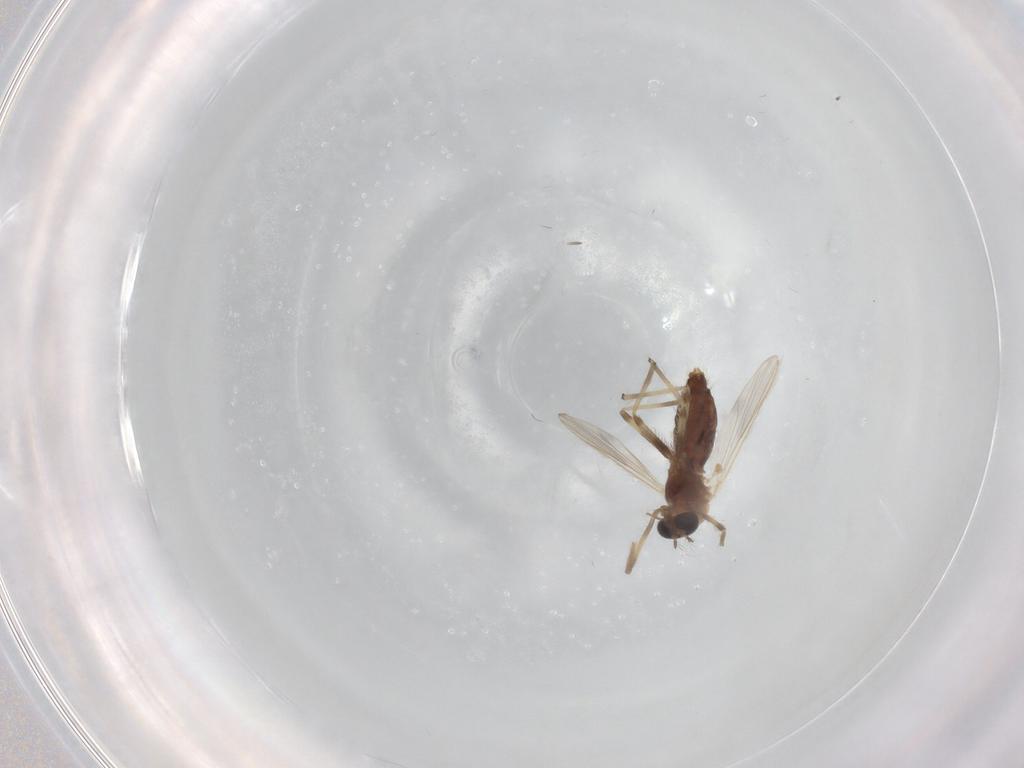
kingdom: Animalia
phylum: Arthropoda
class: Insecta
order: Diptera
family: Chironomidae
